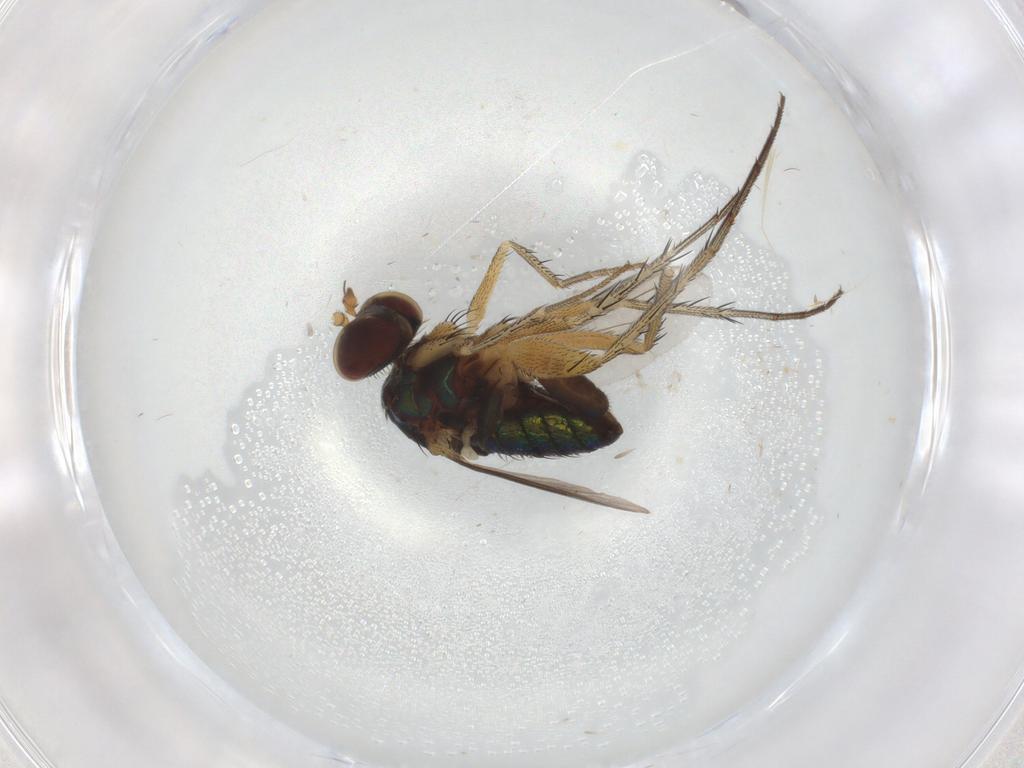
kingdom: Animalia
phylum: Arthropoda
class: Insecta
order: Diptera
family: Dolichopodidae
